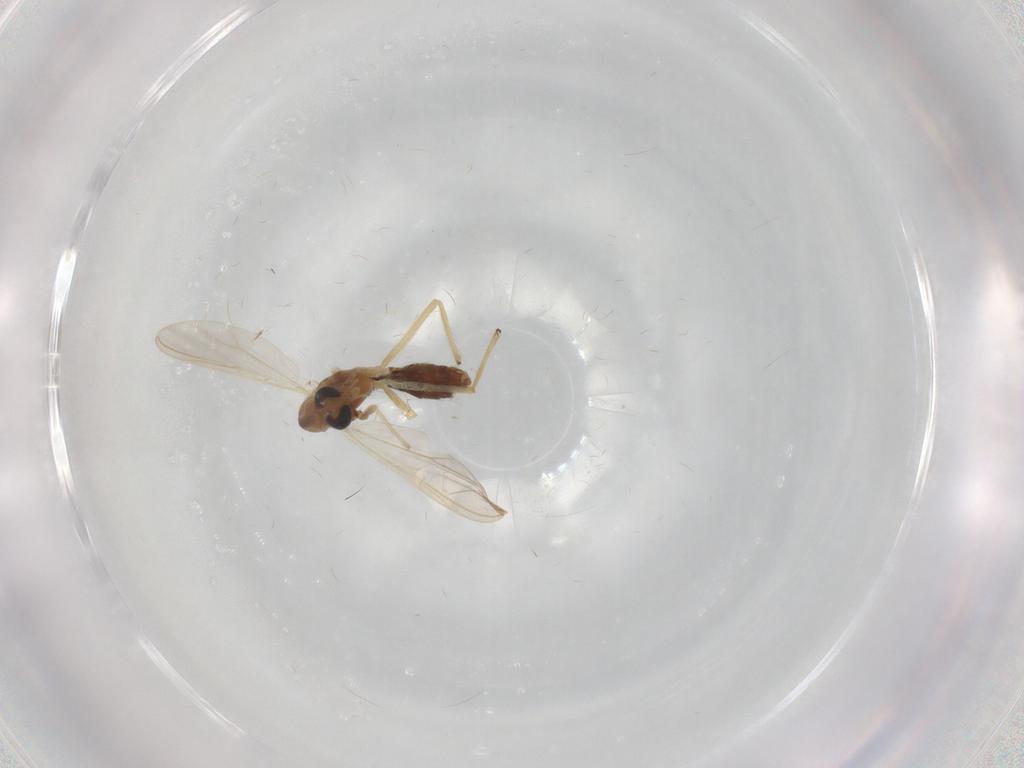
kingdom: Animalia
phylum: Arthropoda
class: Insecta
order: Diptera
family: Chironomidae
